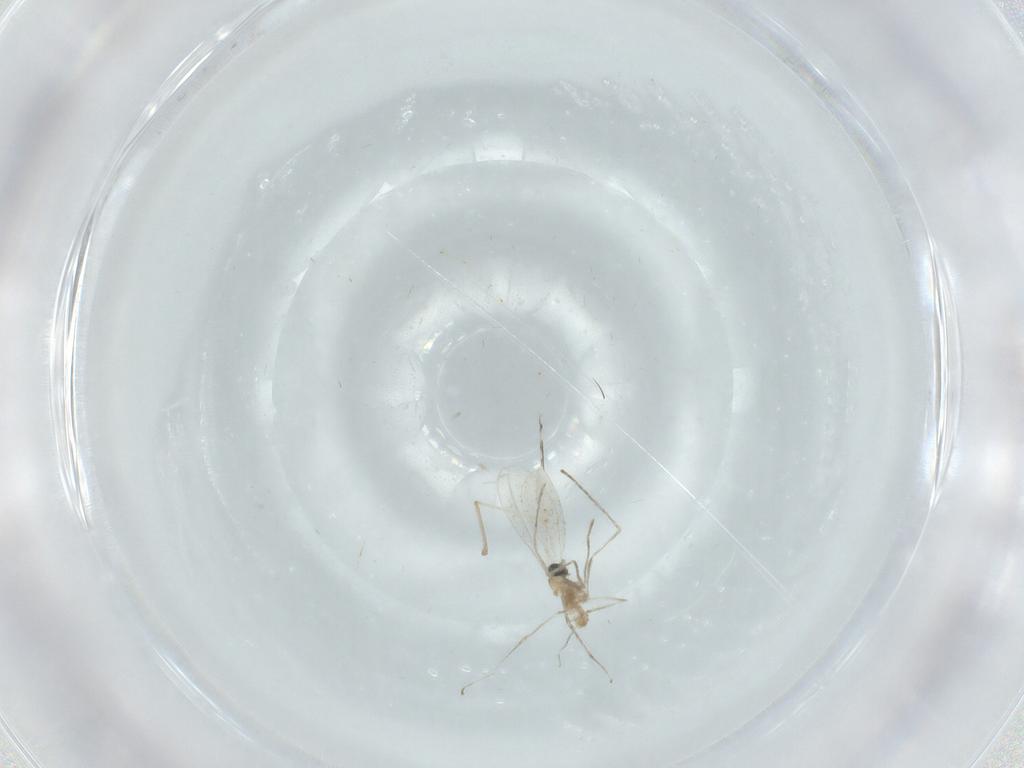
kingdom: Animalia
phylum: Arthropoda
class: Insecta
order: Diptera
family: Cecidomyiidae
